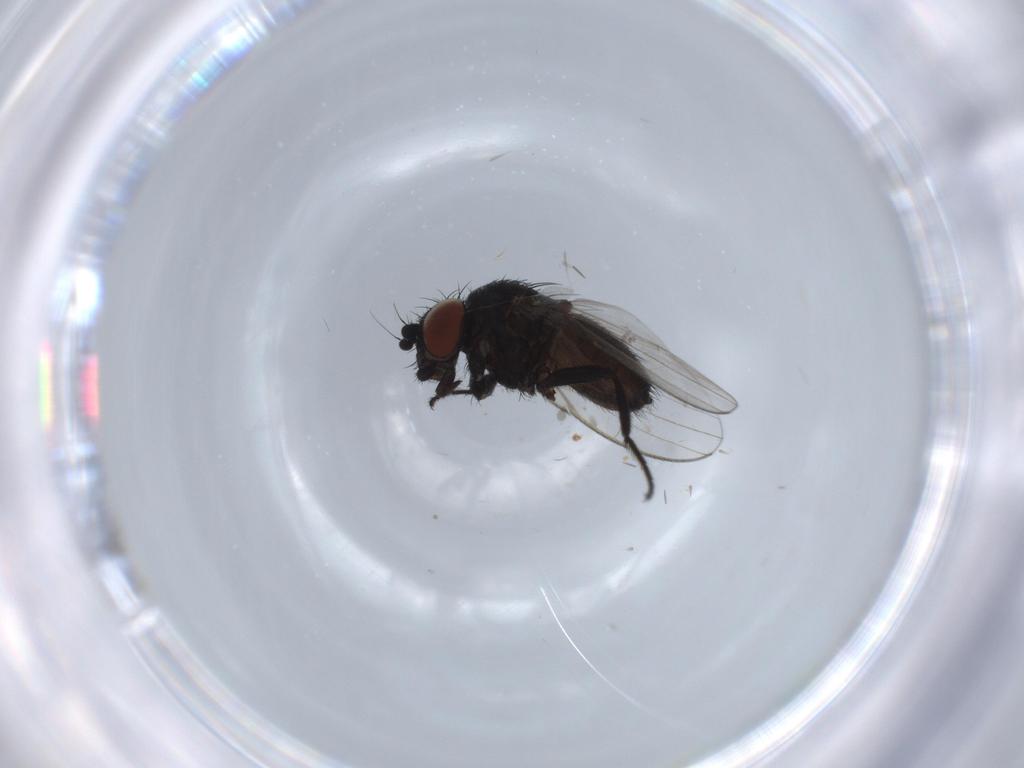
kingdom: Animalia
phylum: Arthropoda
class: Insecta
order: Diptera
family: Milichiidae
